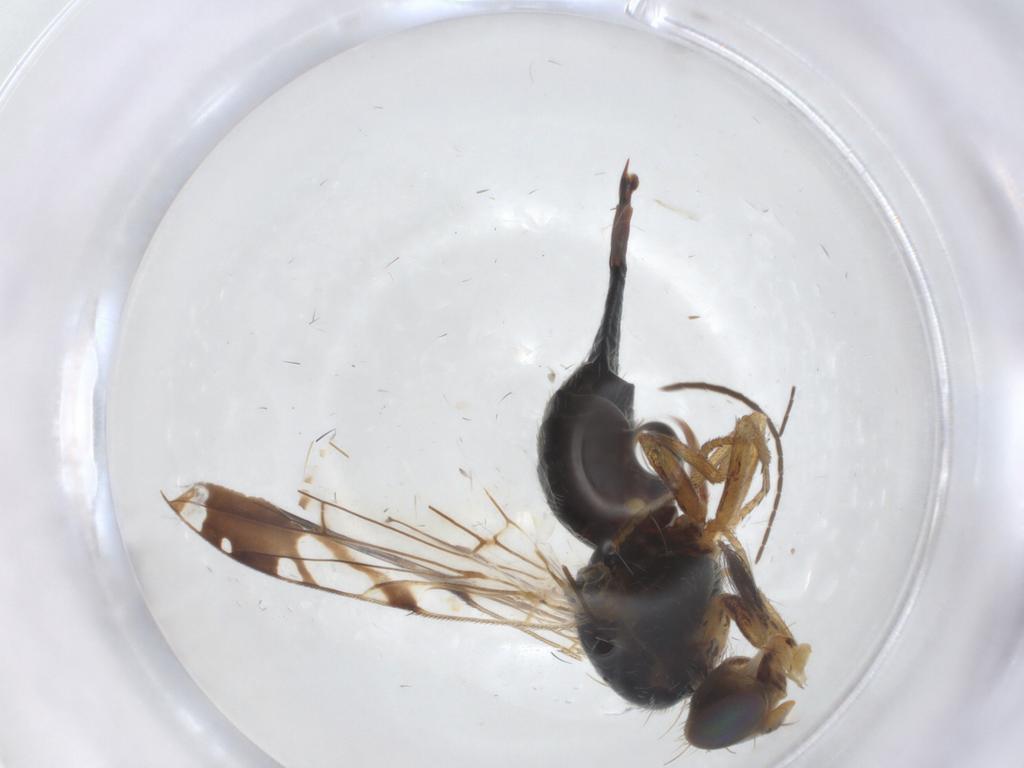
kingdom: Animalia
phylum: Arthropoda
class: Insecta
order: Diptera
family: Tephritidae
